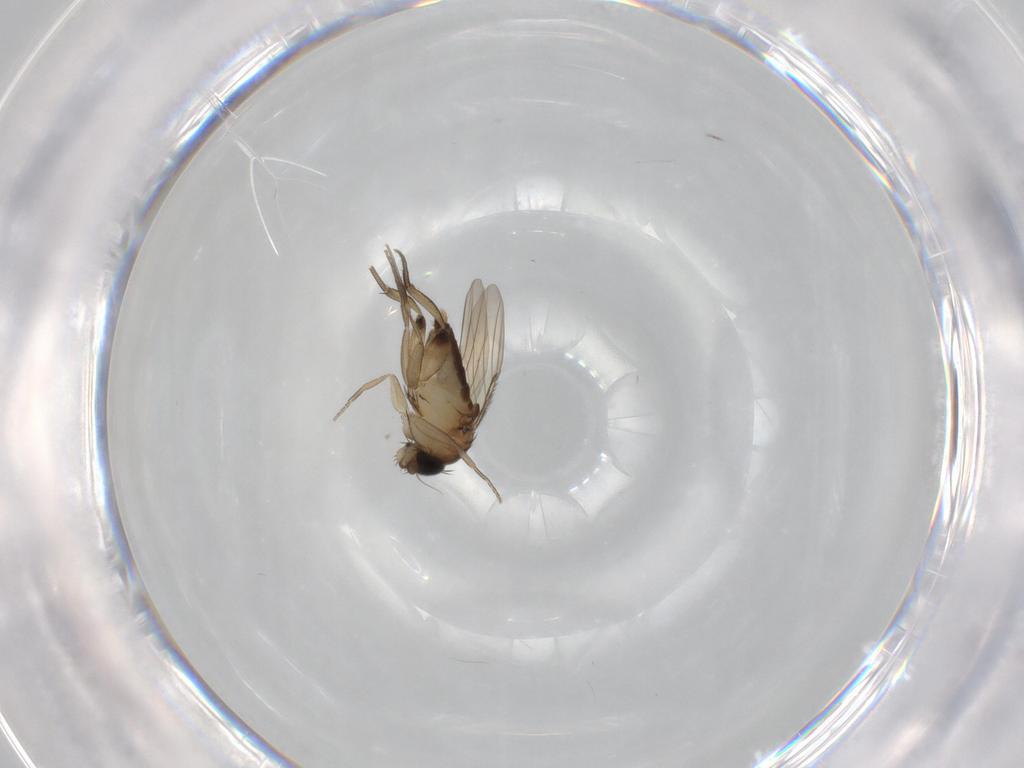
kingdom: Animalia
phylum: Arthropoda
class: Insecta
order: Diptera
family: Phoridae
